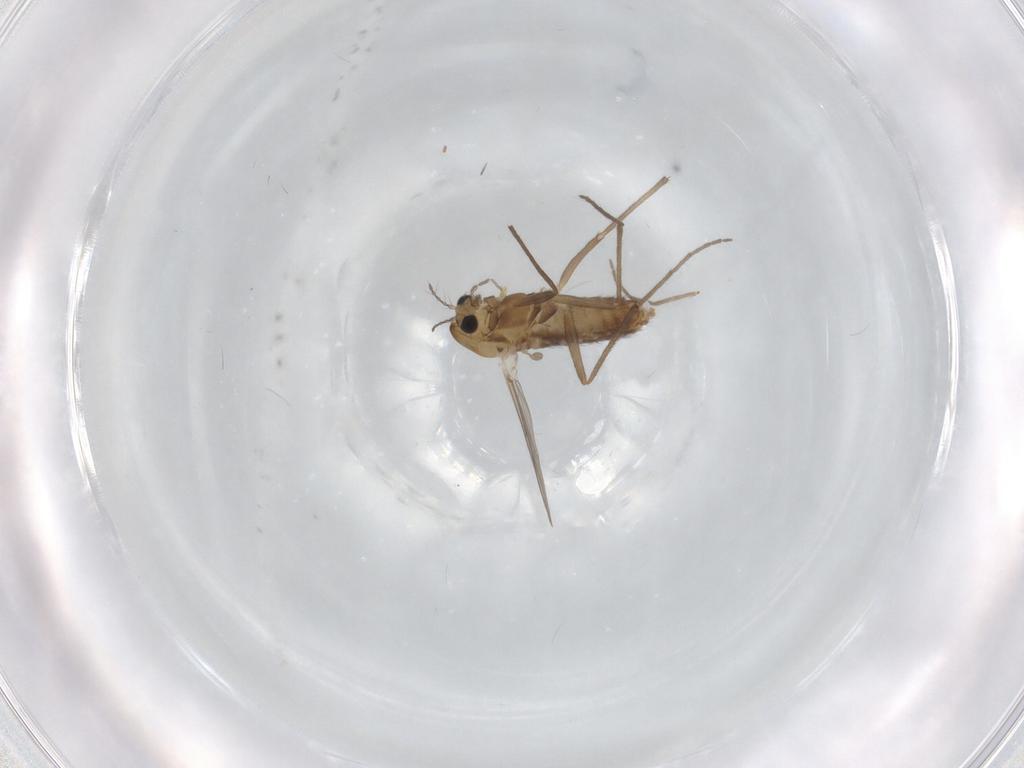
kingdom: Animalia
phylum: Arthropoda
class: Insecta
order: Diptera
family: Chironomidae
